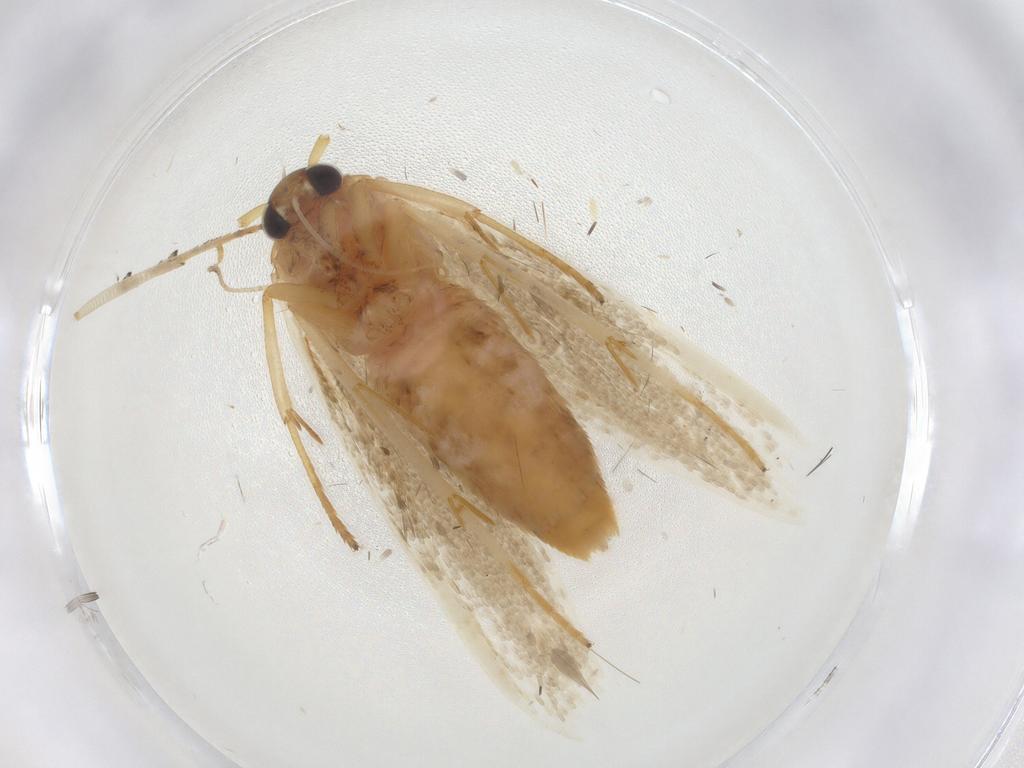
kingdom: Animalia
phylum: Arthropoda
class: Insecta
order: Lepidoptera
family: Blastobasidae
